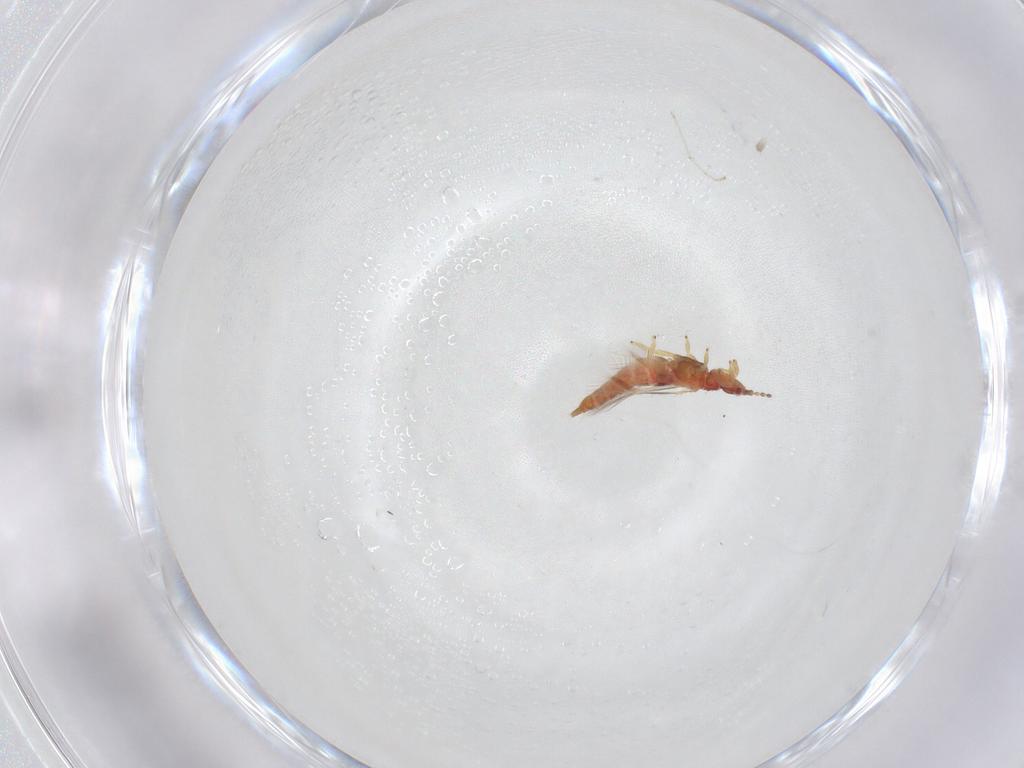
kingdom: Animalia
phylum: Arthropoda
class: Insecta
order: Thysanoptera
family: Phlaeothripidae
